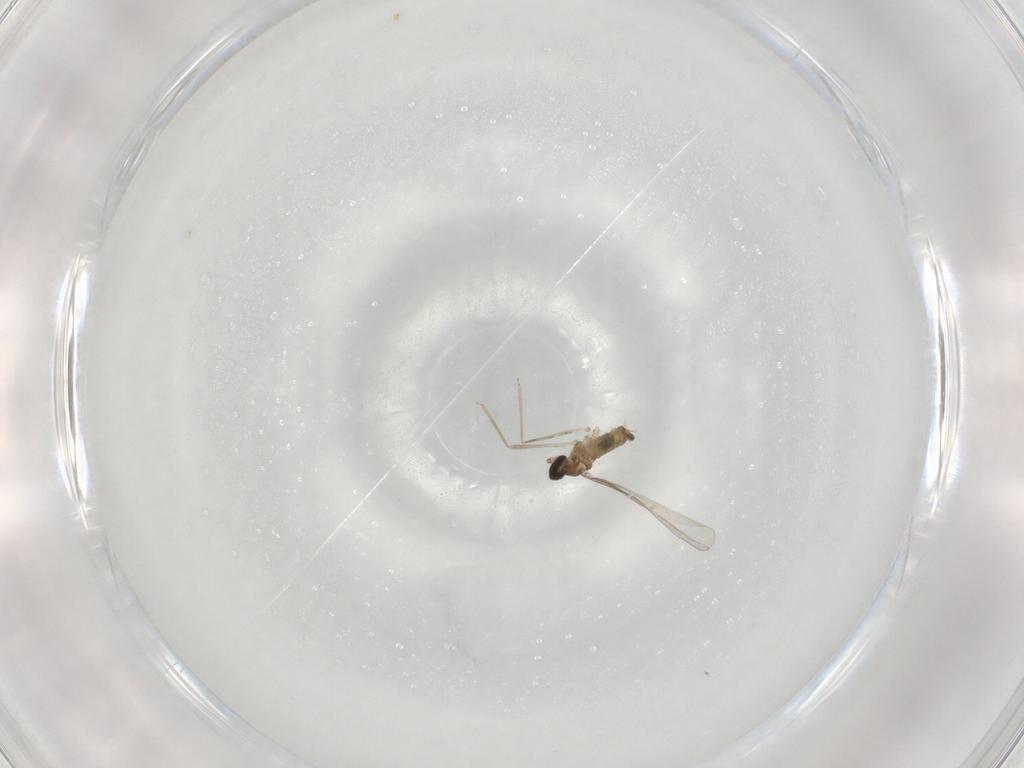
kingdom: Animalia
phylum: Arthropoda
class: Insecta
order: Diptera
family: Cecidomyiidae
